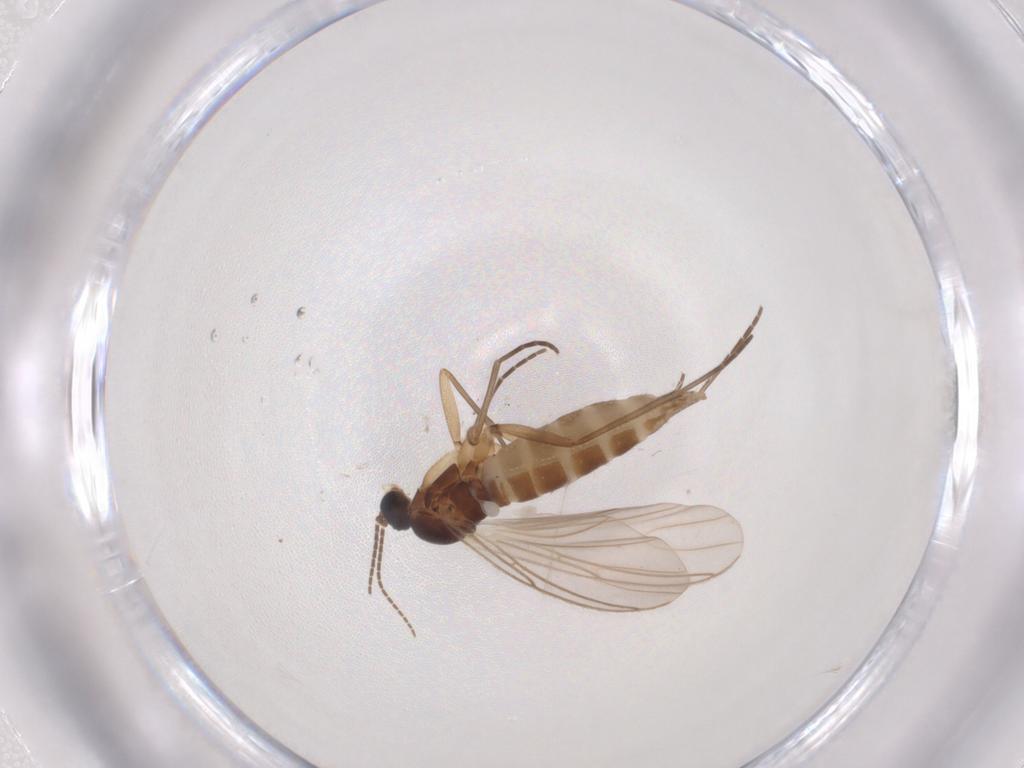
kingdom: Animalia
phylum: Arthropoda
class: Insecta
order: Diptera
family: Sciaridae
